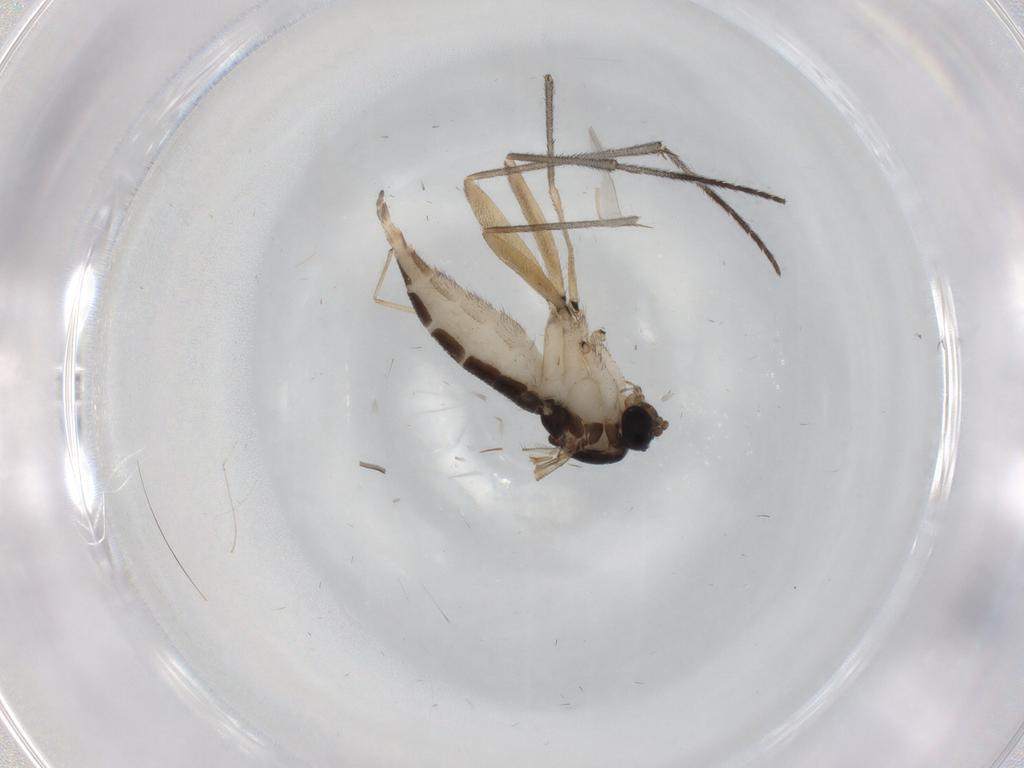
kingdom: Animalia
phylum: Arthropoda
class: Insecta
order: Diptera
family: Sciaridae
